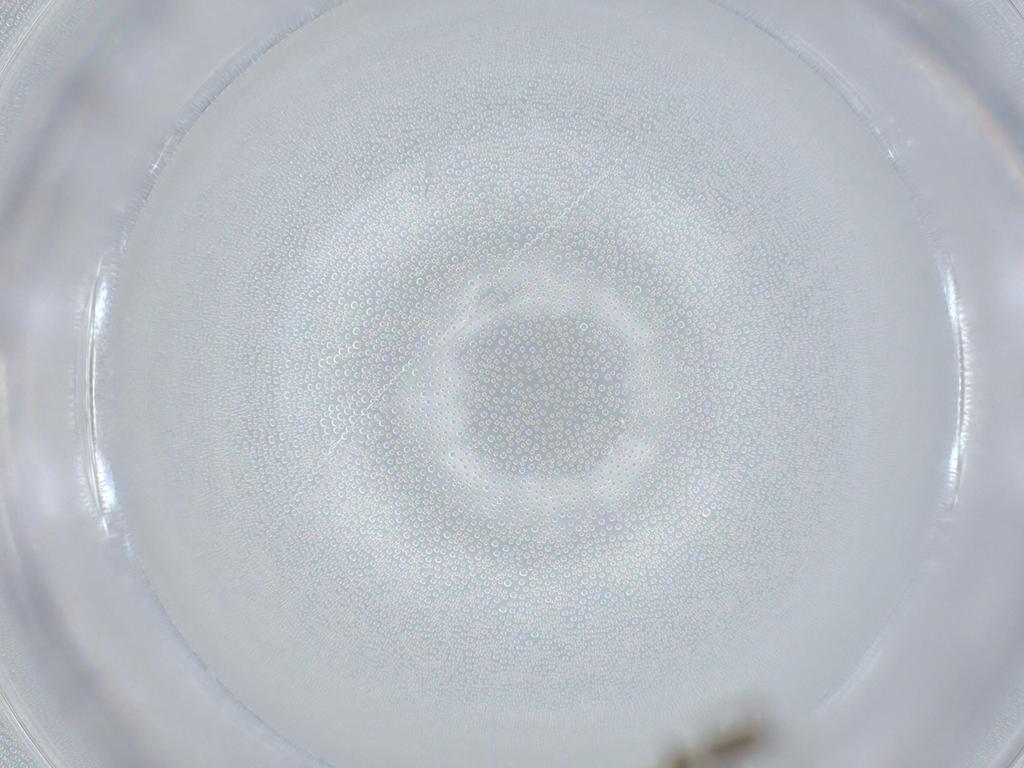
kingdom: Animalia
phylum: Arthropoda
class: Insecta
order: Diptera
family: Chironomidae
